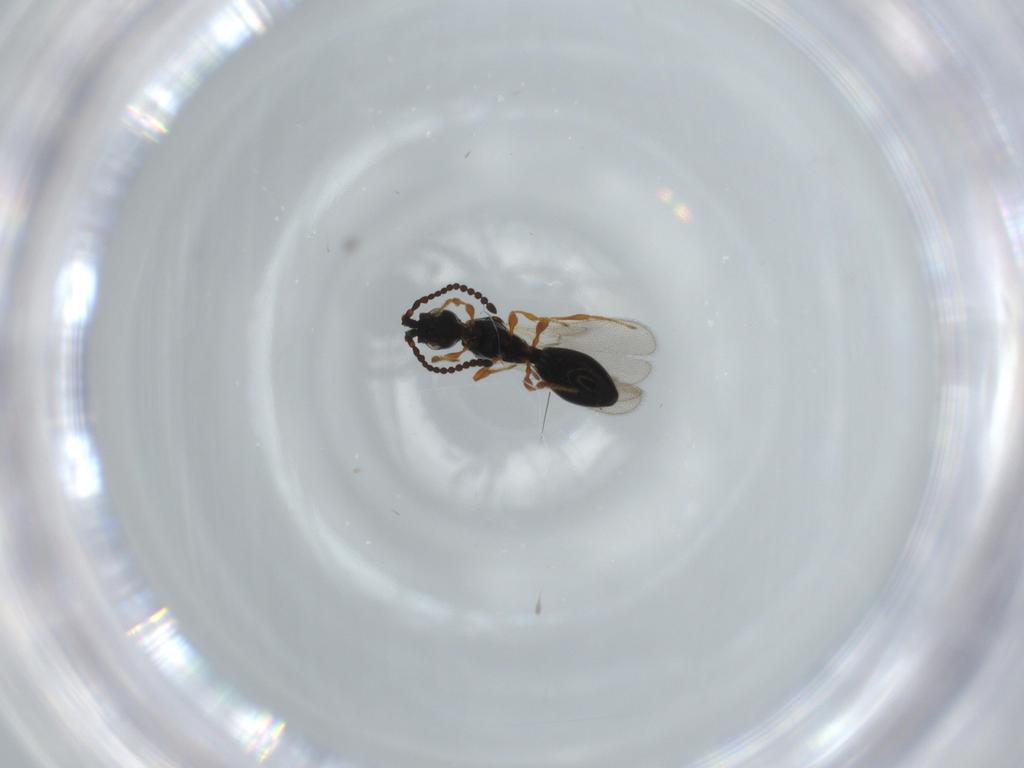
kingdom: Animalia
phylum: Arthropoda
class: Insecta
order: Hymenoptera
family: Diapriidae
